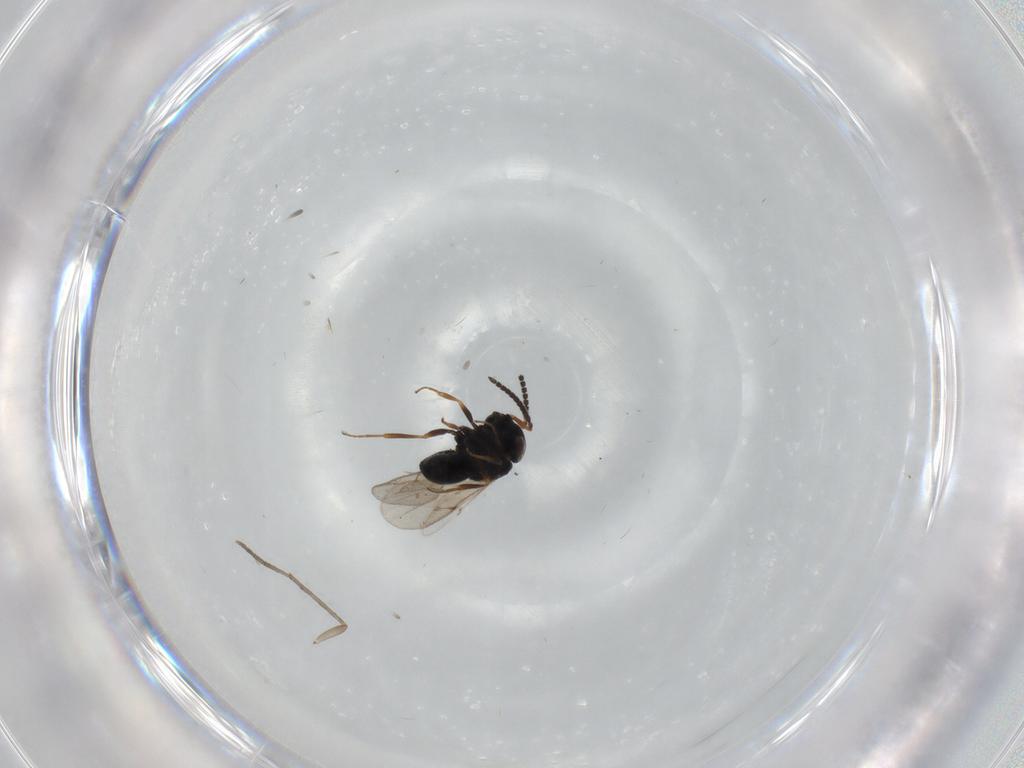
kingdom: Animalia
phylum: Arthropoda
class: Insecta
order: Hymenoptera
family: Scelionidae
